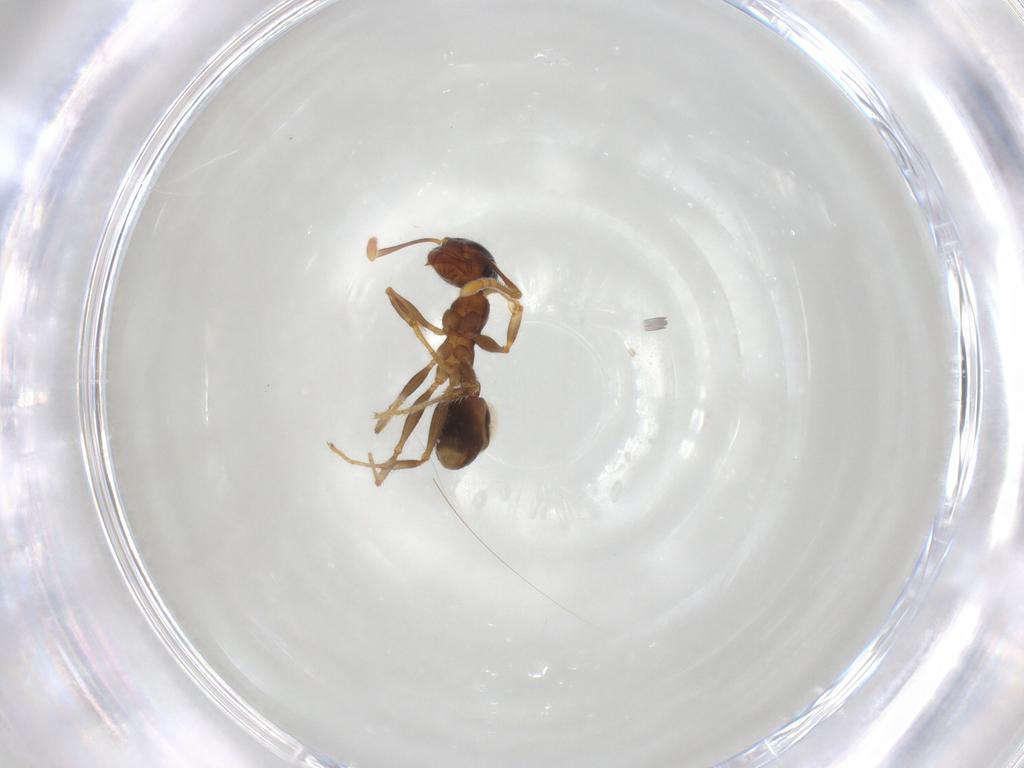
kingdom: Animalia
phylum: Arthropoda
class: Insecta
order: Hymenoptera
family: Formicidae
